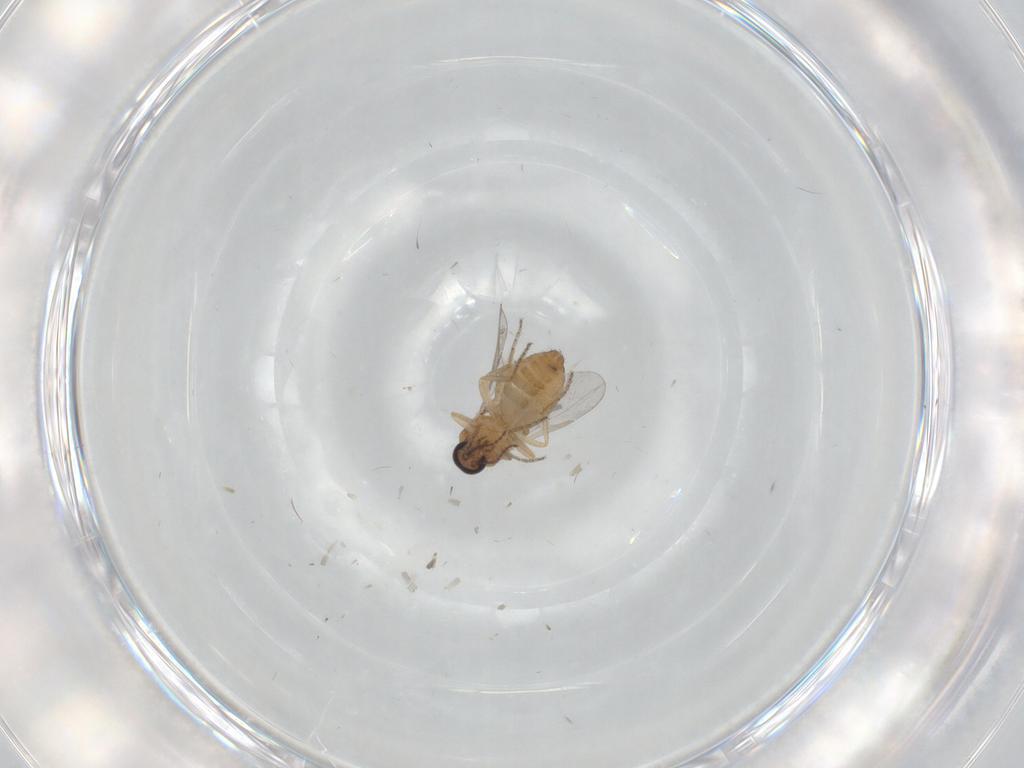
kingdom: Animalia
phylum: Arthropoda
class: Insecta
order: Diptera
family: Ceratopogonidae
